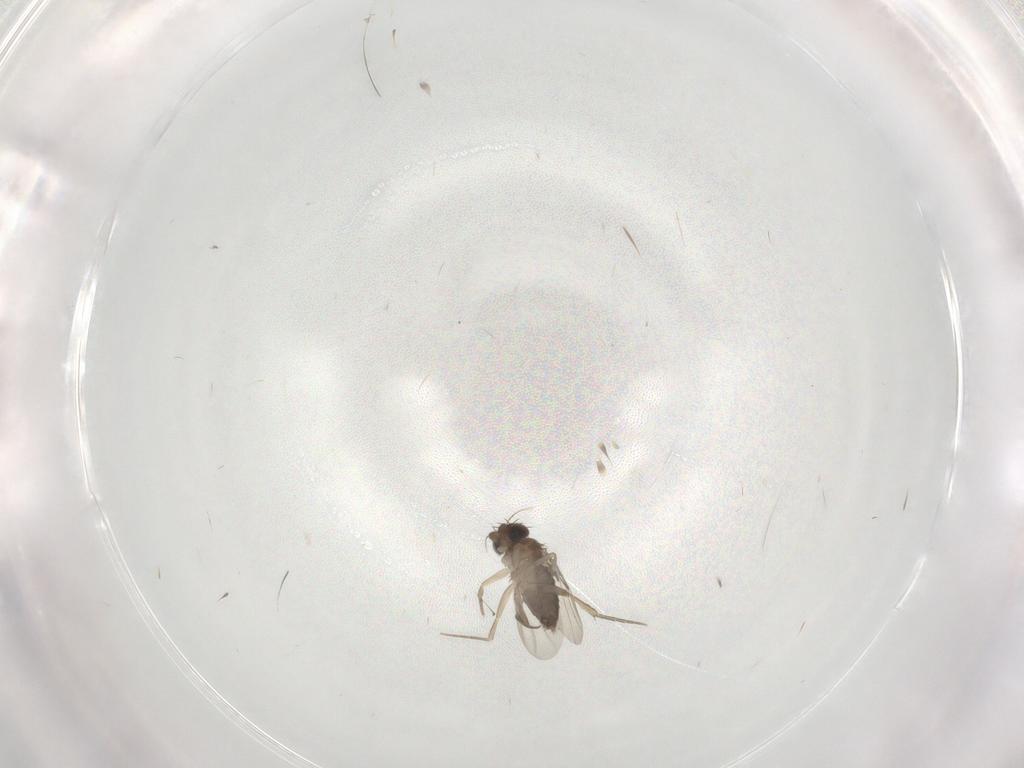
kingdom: Animalia
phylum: Arthropoda
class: Insecta
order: Diptera
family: Phoridae
